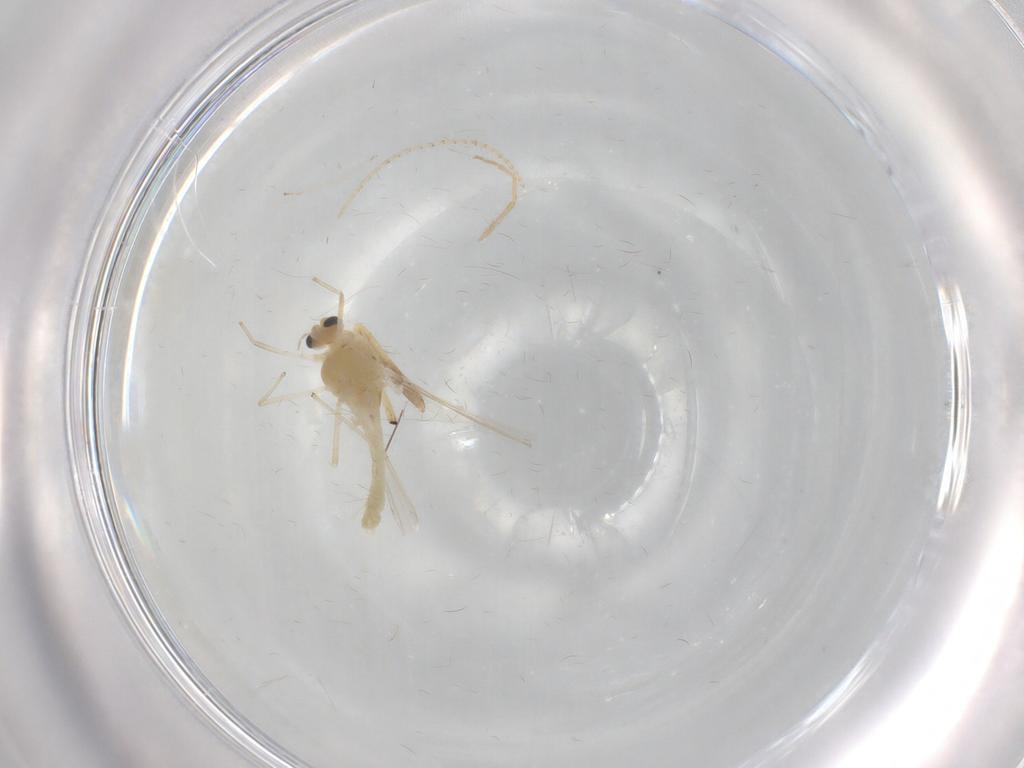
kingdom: Animalia
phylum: Arthropoda
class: Insecta
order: Diptera
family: Chironomidae
